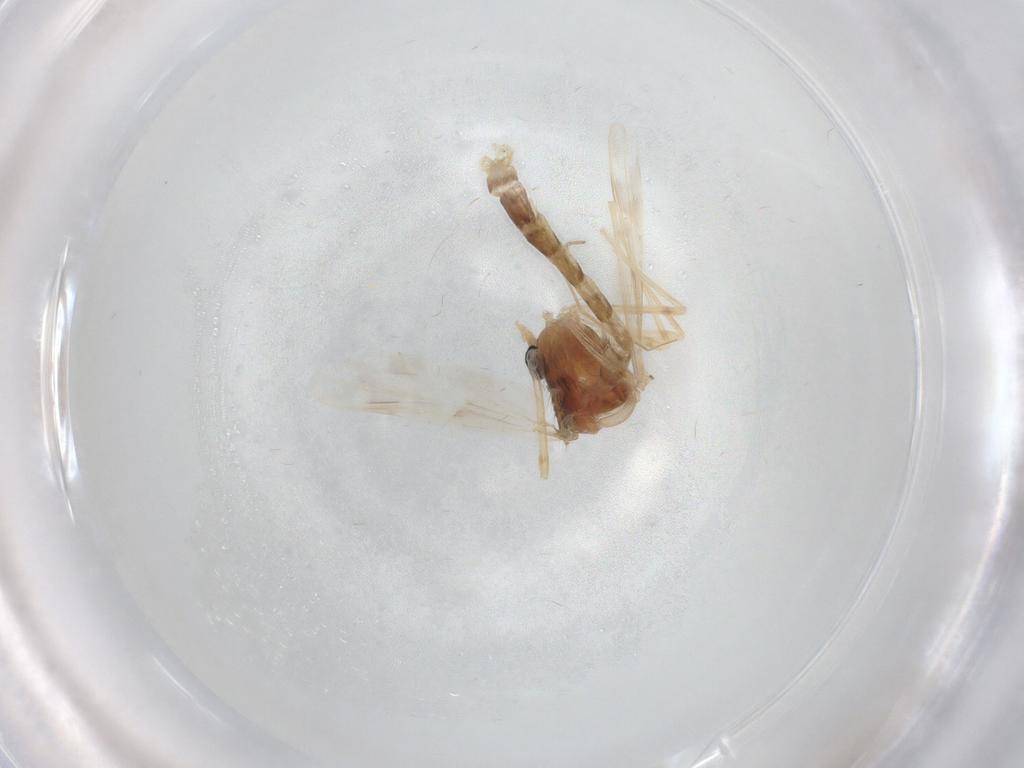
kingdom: Animalia
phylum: Arthropoda
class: Insecta
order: Diptera
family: Chironomidae
